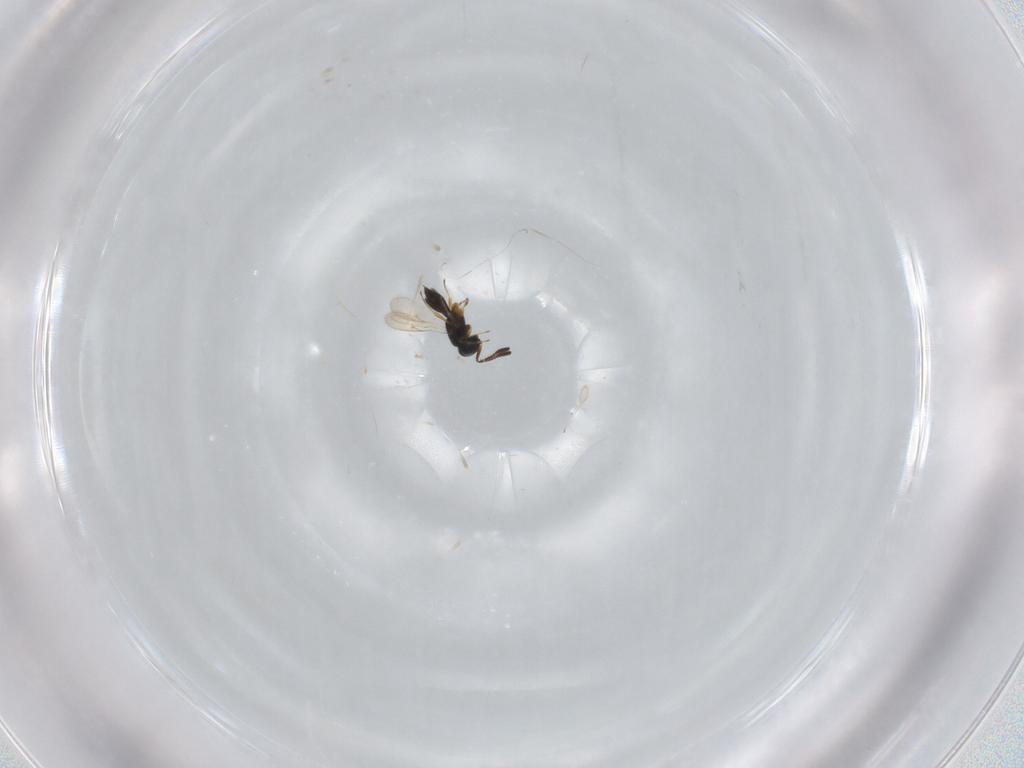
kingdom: Animalia
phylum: Arthropoda
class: Insecta
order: Hymenoptera
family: Scelionidae
